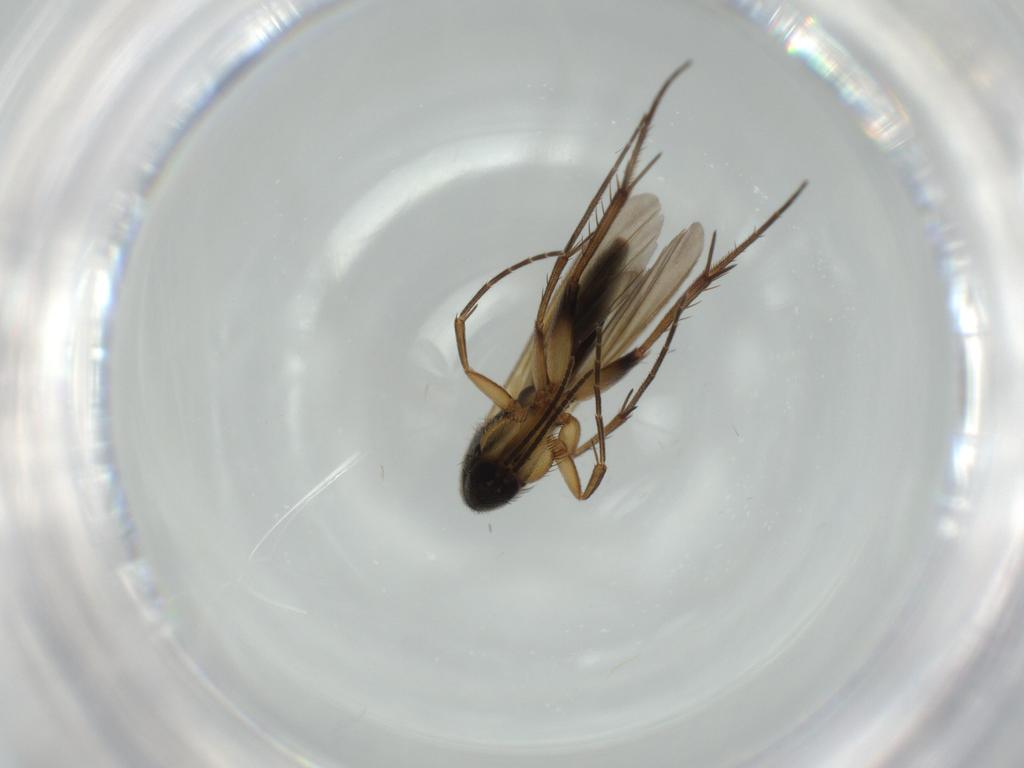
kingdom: Animalia
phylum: Arthropoda
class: Insecta
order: Diptera
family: Mycetophilidae
